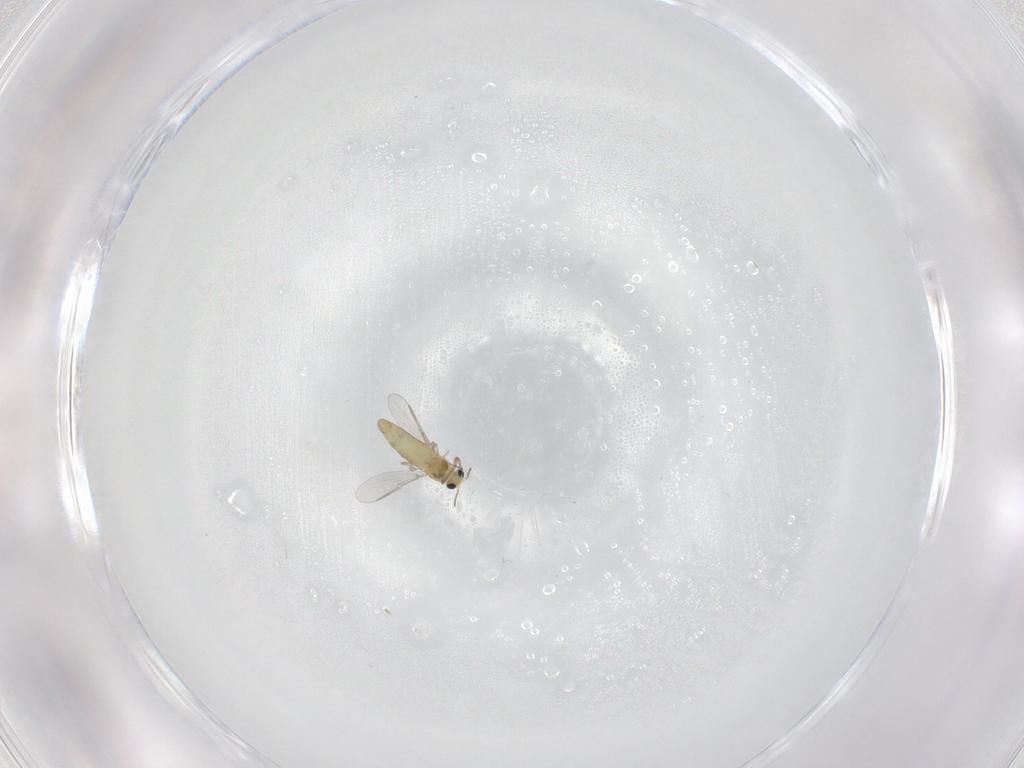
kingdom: Animalia
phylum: Arthropoda
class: Insecta
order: Diptera
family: Chironomidae
